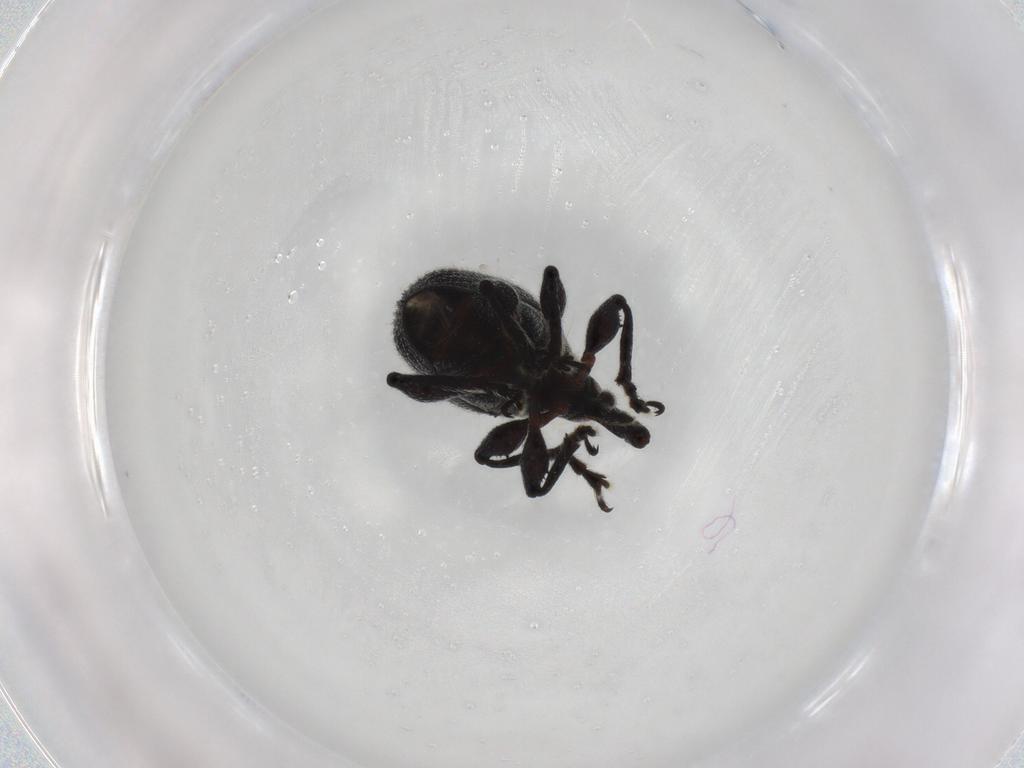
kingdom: Animalia
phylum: Arthropoda
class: Insecta
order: Coleoptera
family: Brentidae
